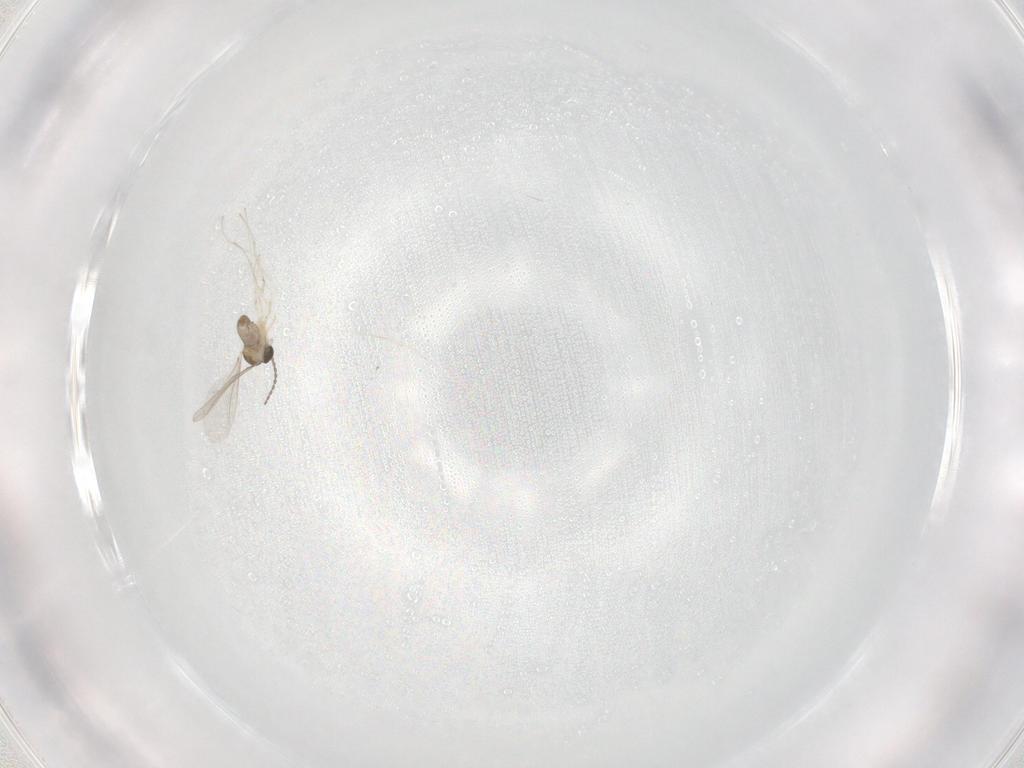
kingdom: Animalia
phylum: Arthropoda
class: Insecta
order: Diptera
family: Cecidomyiidae
